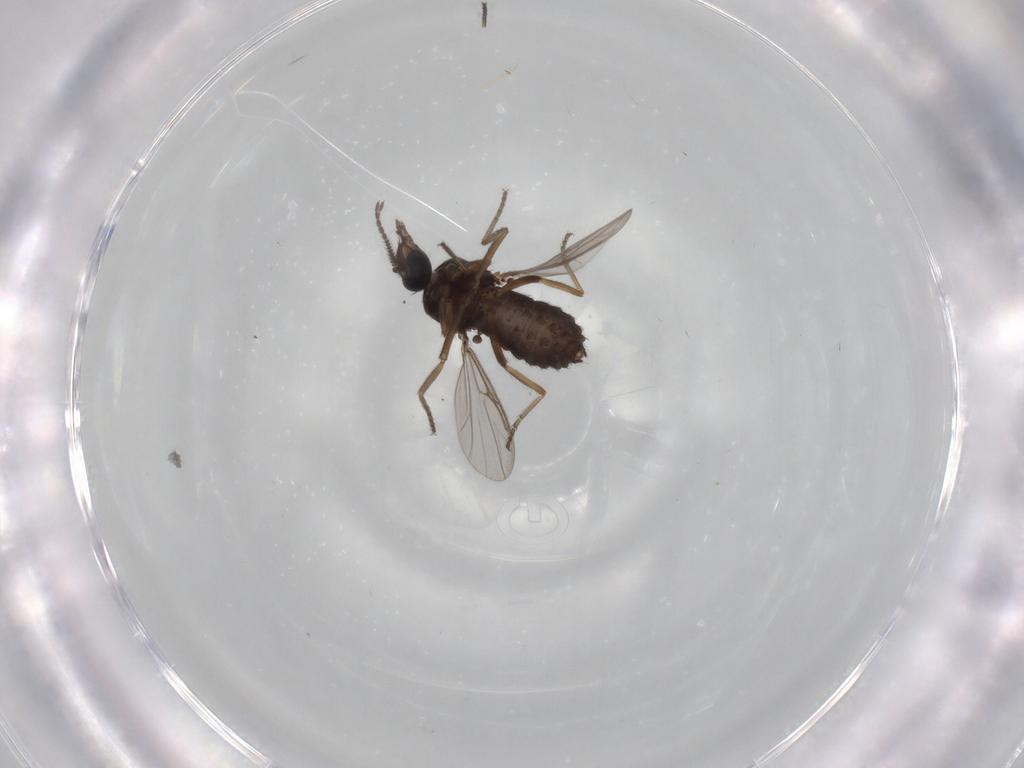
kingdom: Animalia
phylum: Arthropoda
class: Insecta
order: Diptera
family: Ceratopogonidae
